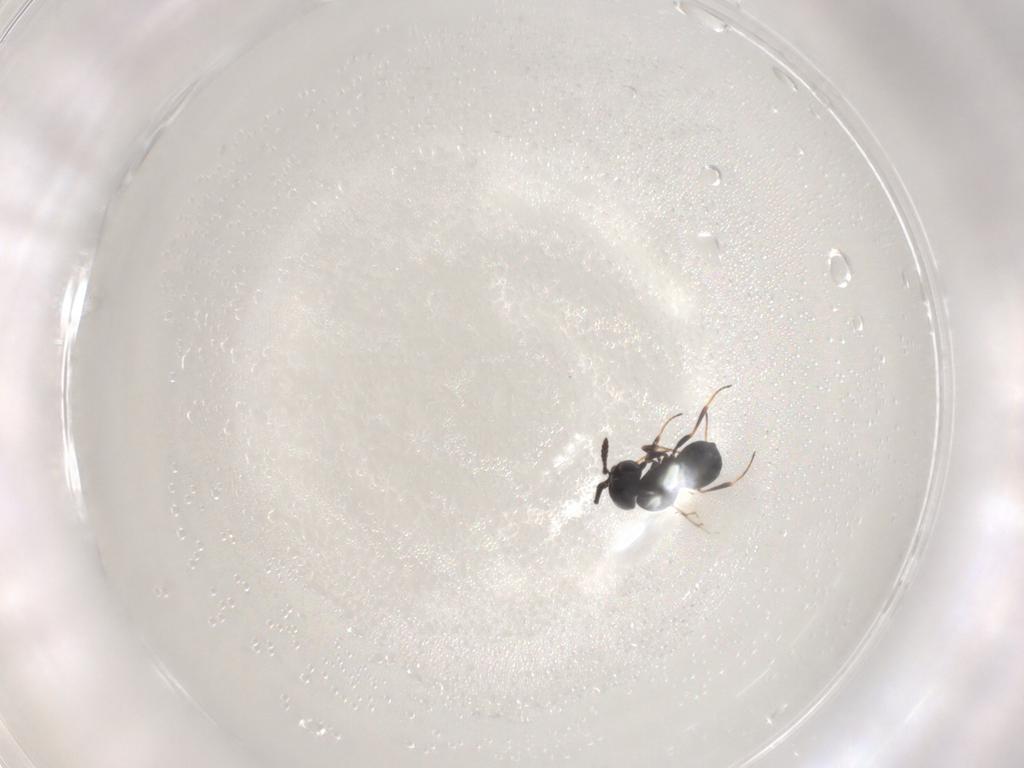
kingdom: Animalia
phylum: Arthropoda
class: Insecta
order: Hymenoptera
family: Scelionidae
